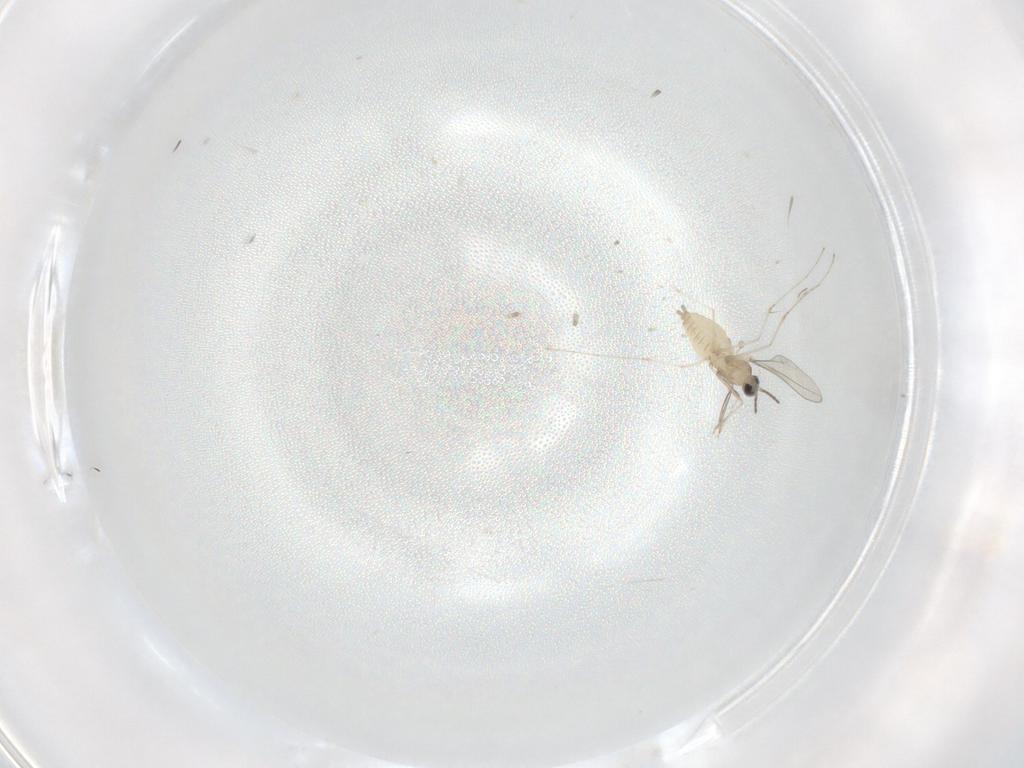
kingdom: Animalia
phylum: Arthropoda
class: Insecta
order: Diptera
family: Cecidomyiidae
